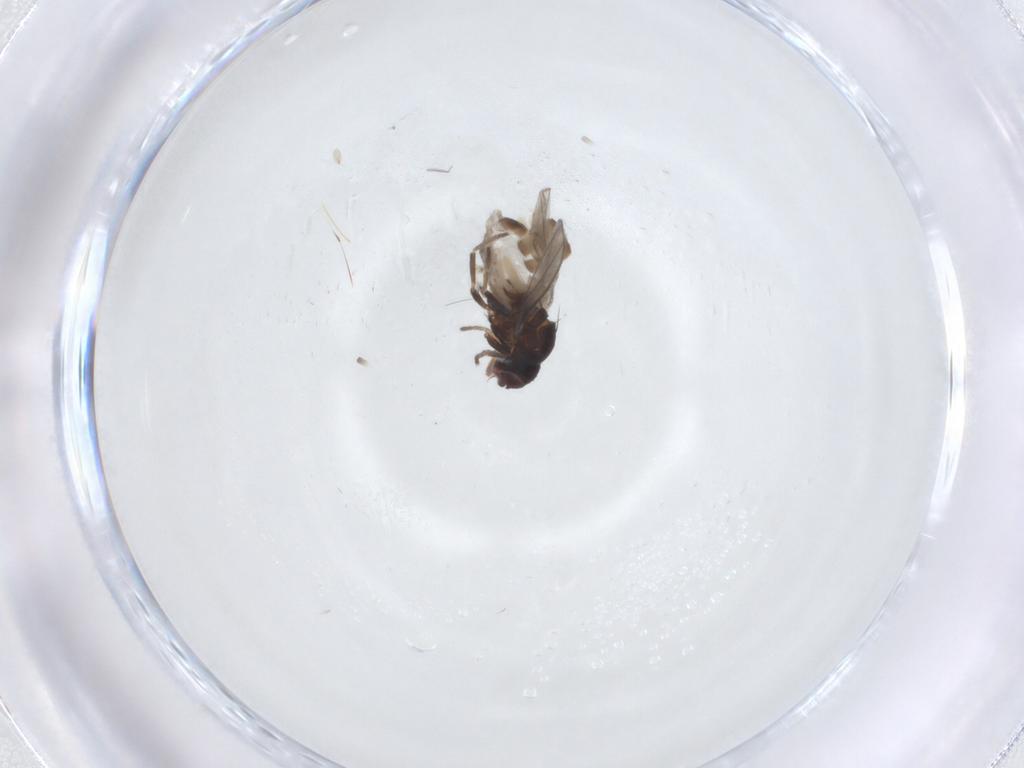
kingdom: Animalia
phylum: Arthropoda
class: Insecta
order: Diptera
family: Milichiidae
